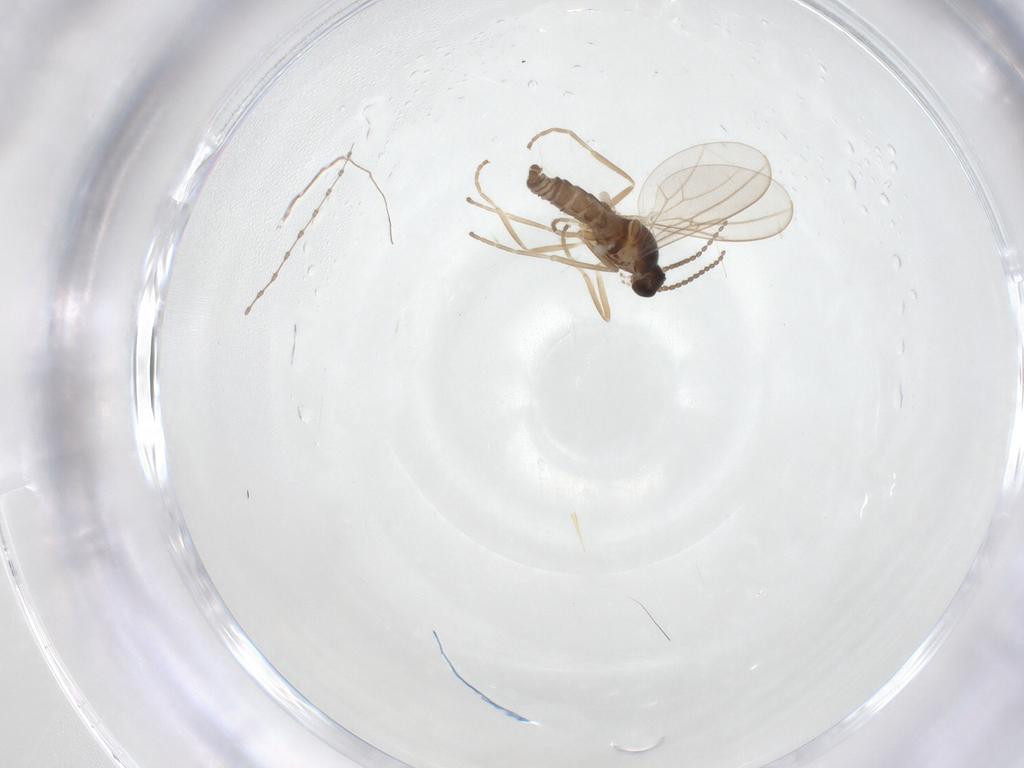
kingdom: Animalia
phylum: Arthropoda
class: Insecta
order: Diptera
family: Cecidomyiidae
